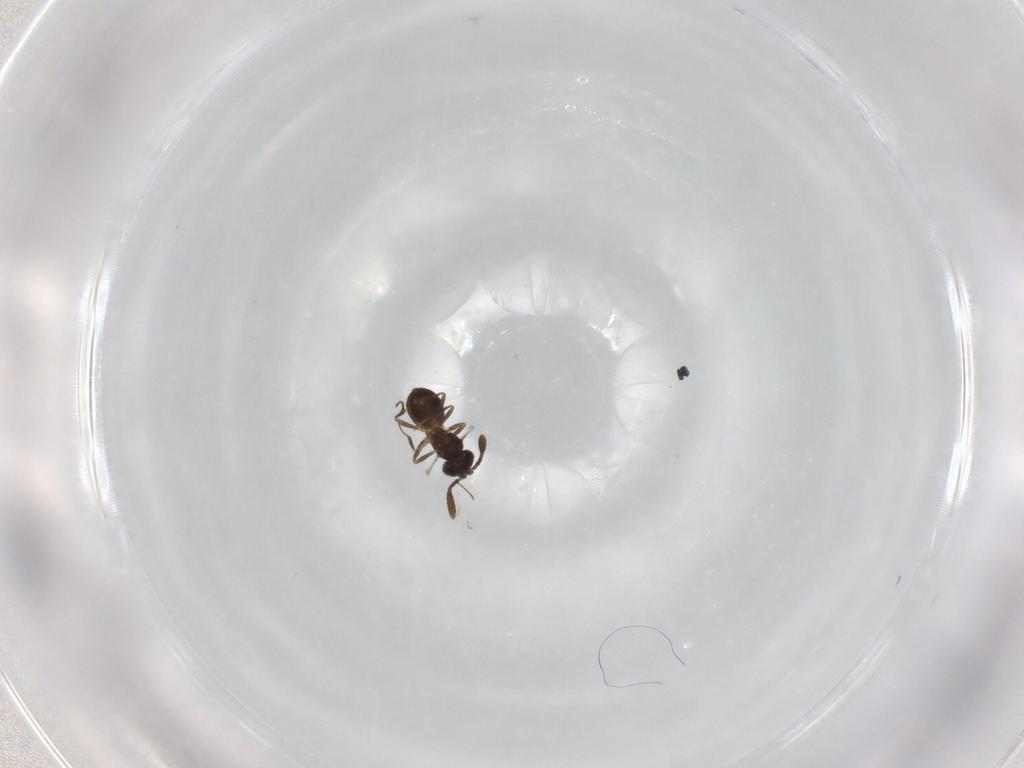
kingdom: Animalia
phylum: Arthropoda
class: Insecta
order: Hymenoptera
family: Scelionidae
